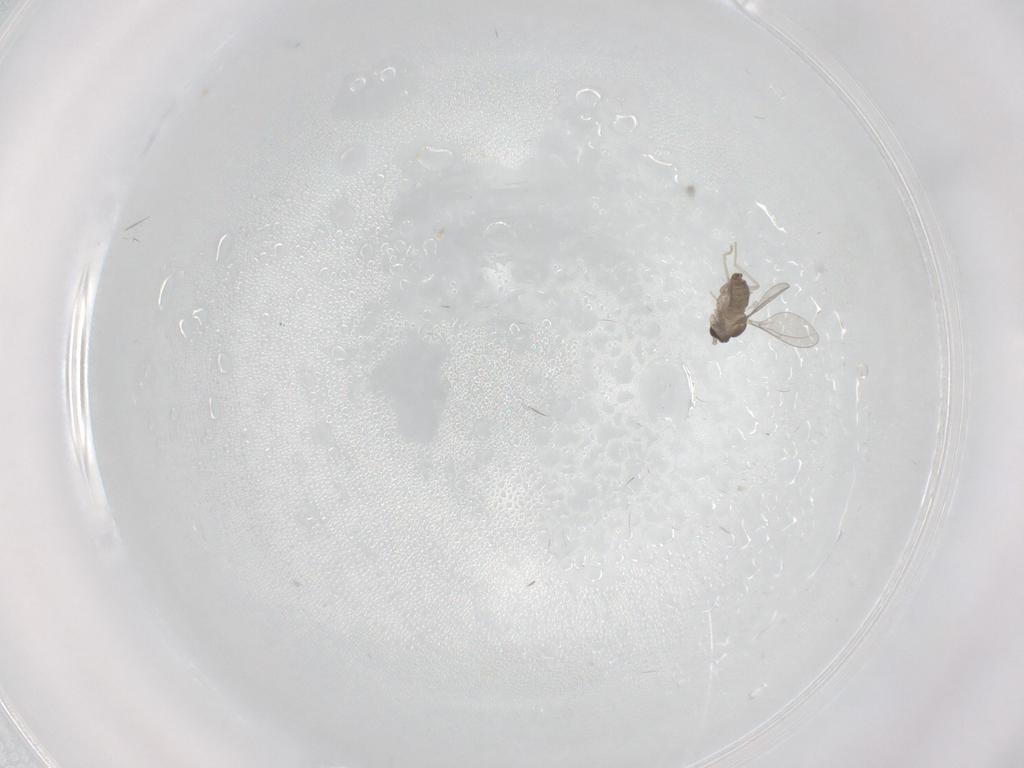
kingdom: Animalia
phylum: Arthropoda
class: Insecta
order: Diptera
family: Cecidomyiidae
